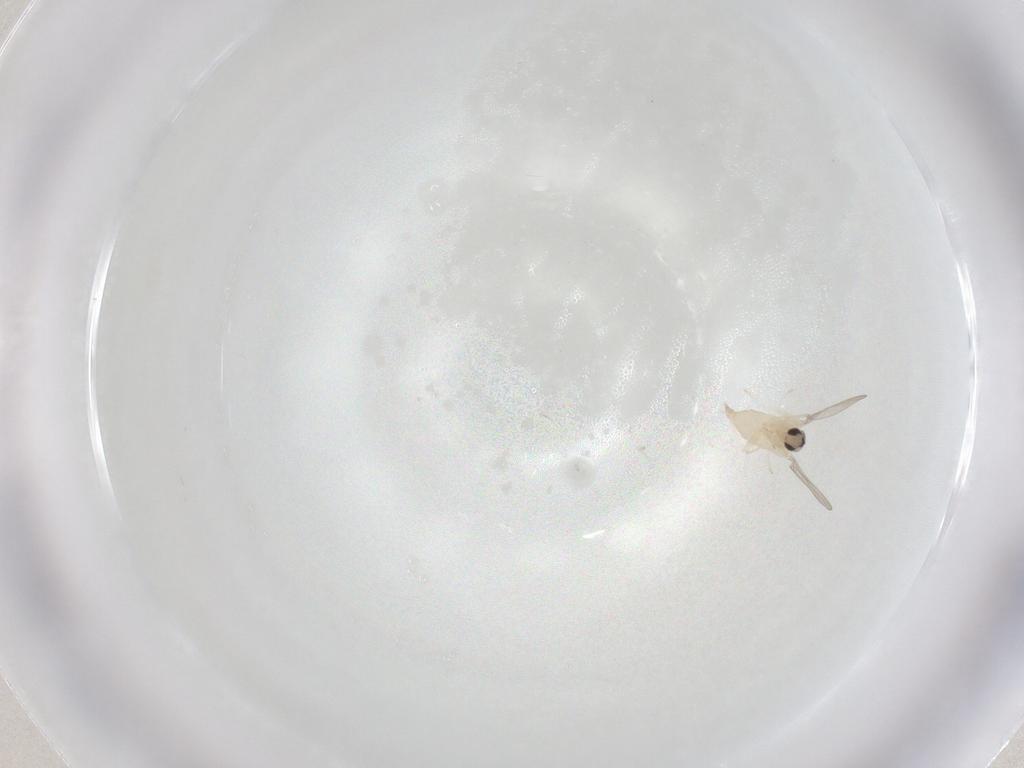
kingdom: Animalia
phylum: Arthropoda
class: Insecta
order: Diptera
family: Cecidomyiidae
